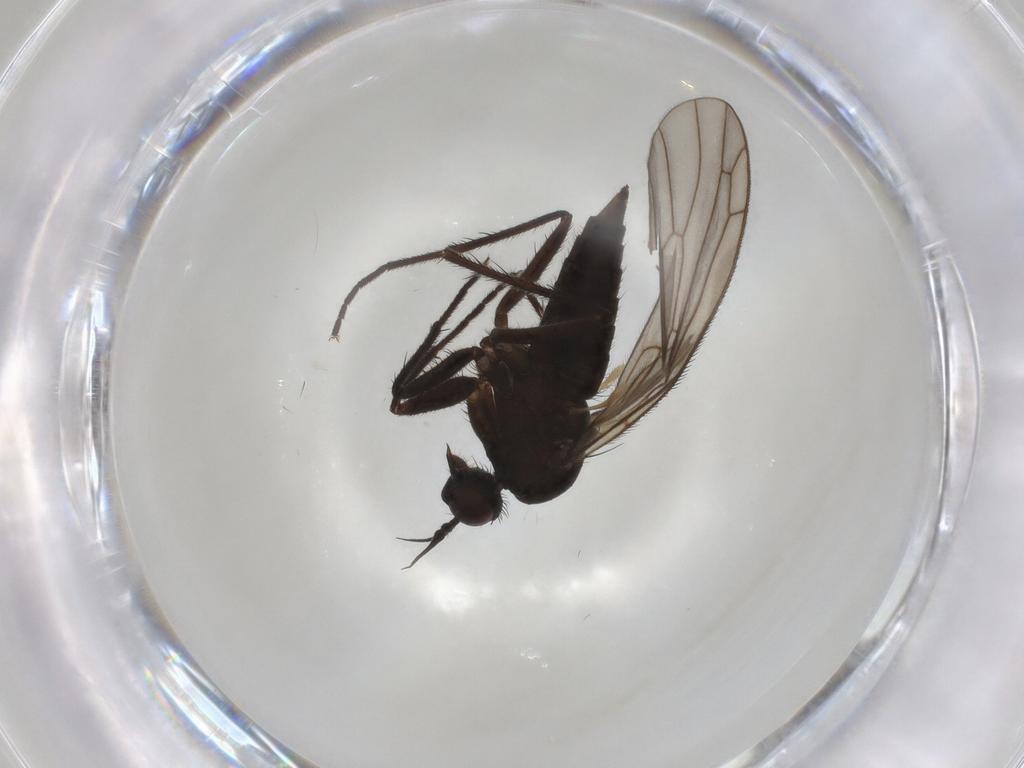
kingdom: Animalia
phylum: Arthropoda
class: Insecta
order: Diptera
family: Empididae
